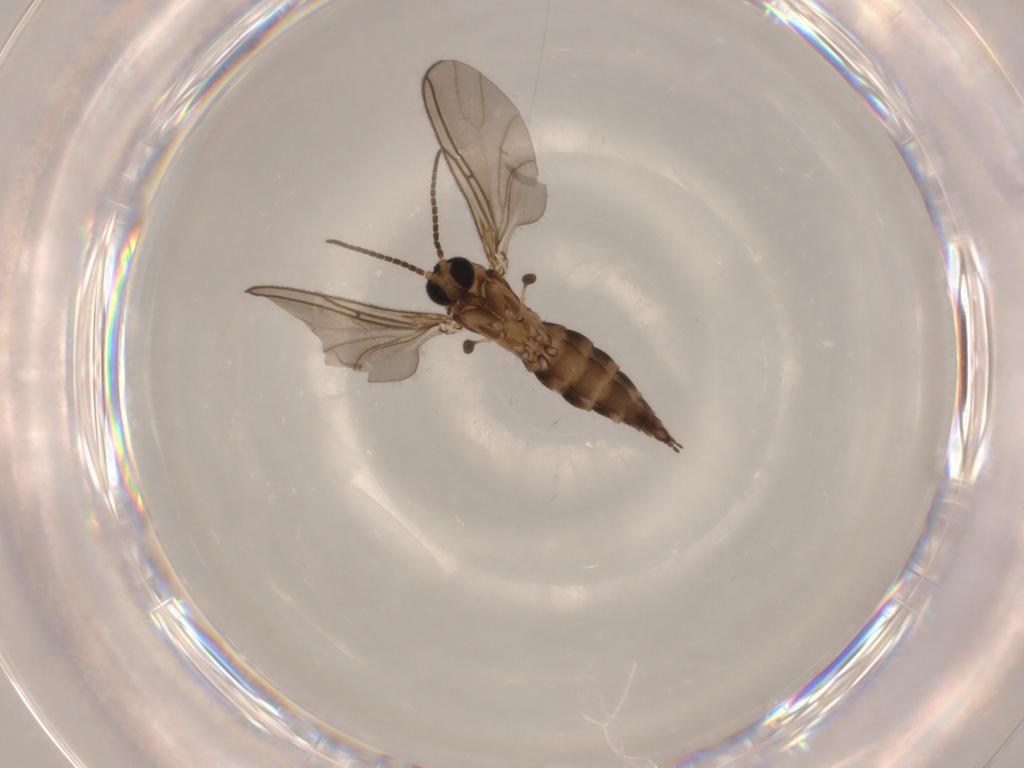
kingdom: Animalia
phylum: Arthropoda
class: Insecta
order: Diptera
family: Sciaridae
